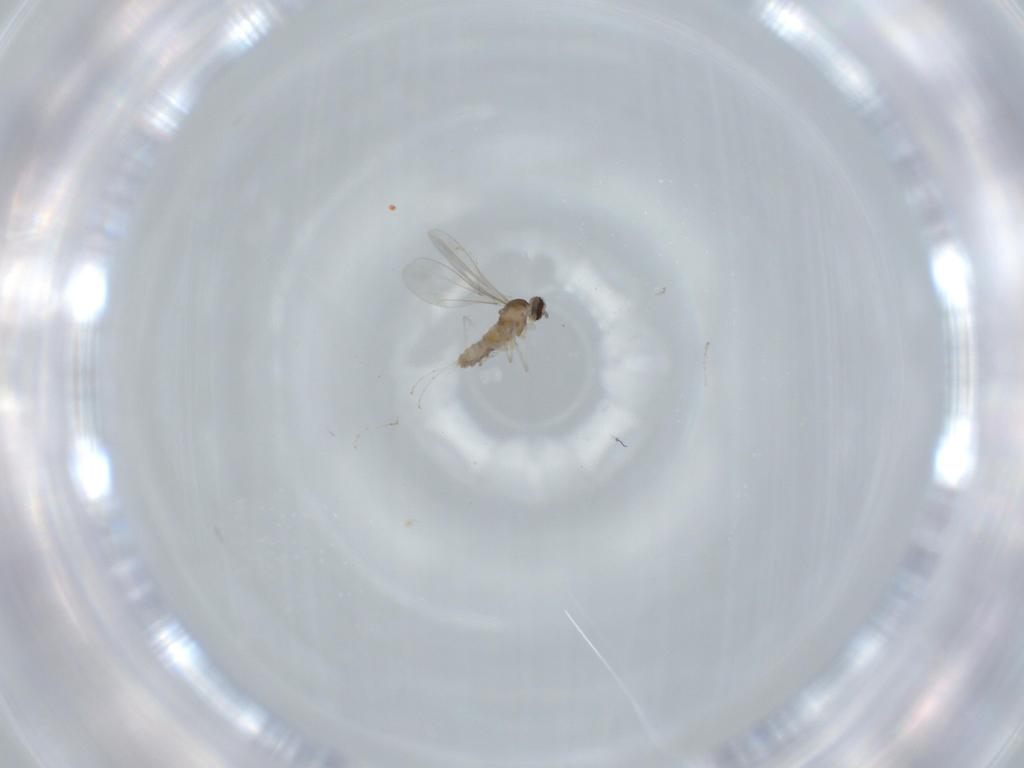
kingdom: Animalia
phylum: Arthropoda
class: Insecta
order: Diptera
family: Cecidomyiidae
